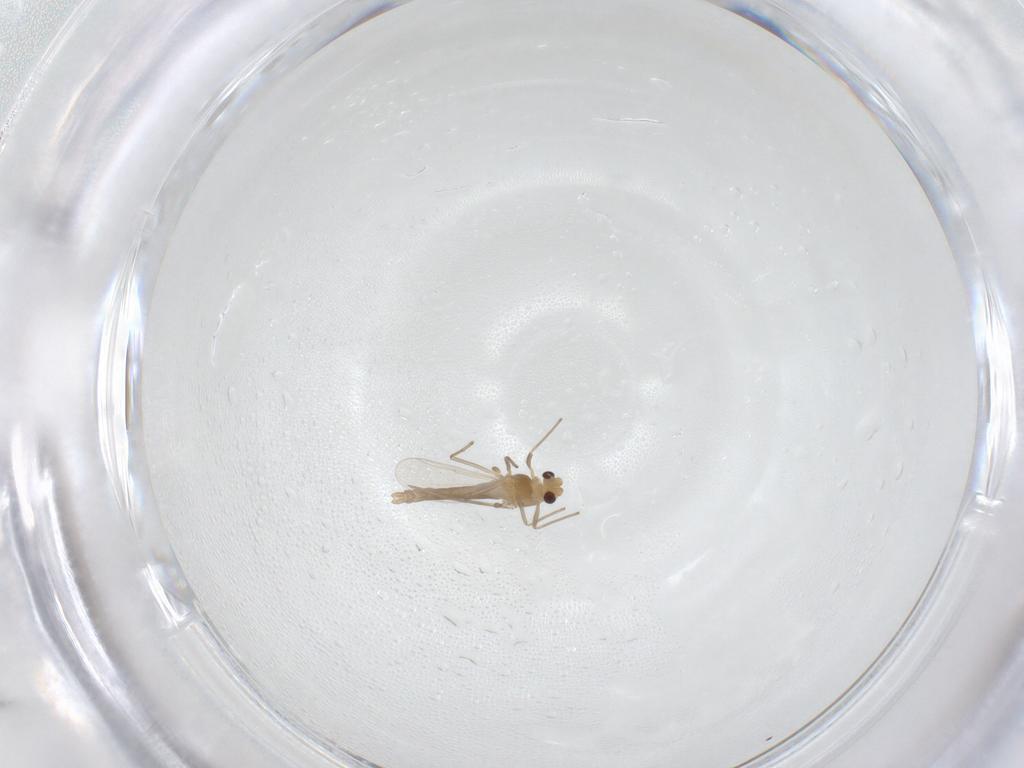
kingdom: Animalia
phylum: Arthropoda
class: Insecta
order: Diptera
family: Chironomidae
